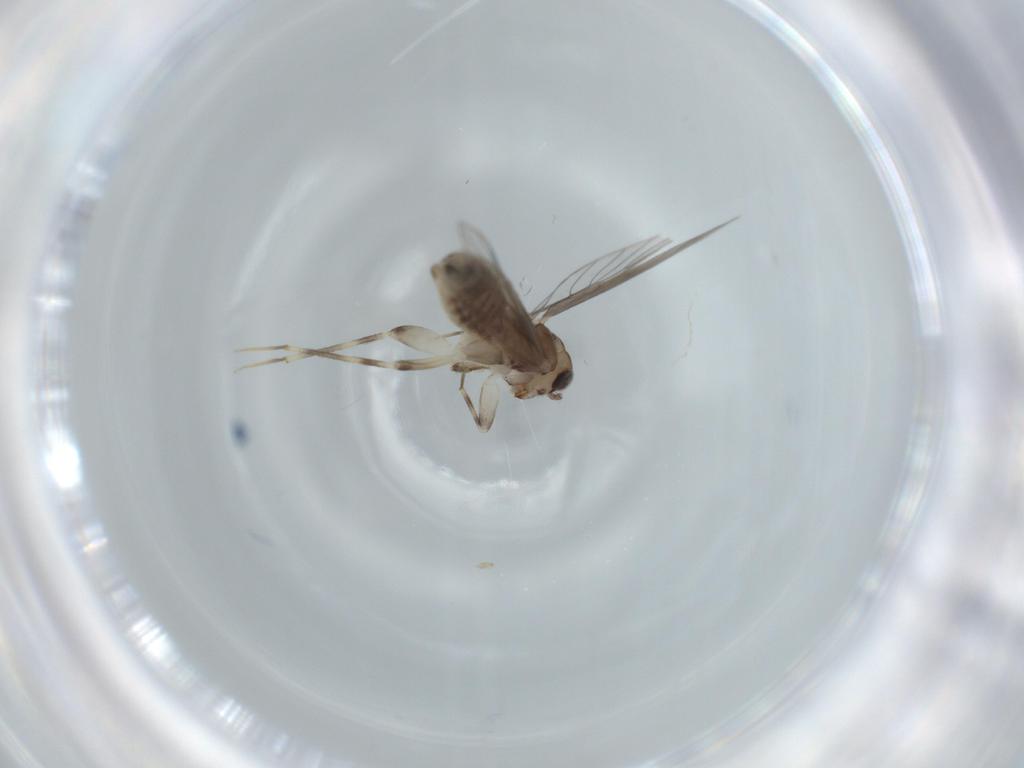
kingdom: Animalia
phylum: Arthropoda
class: Insecta
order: Psocodea
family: Lepidopsocidae
